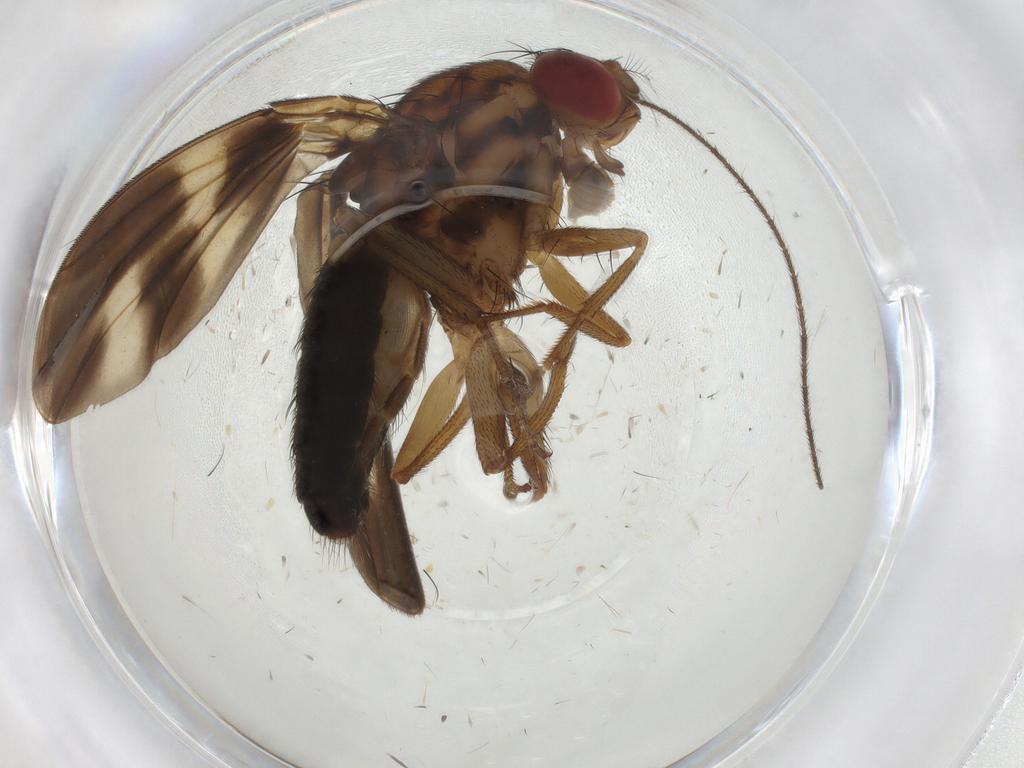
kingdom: Animalia
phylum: Arthropoda
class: Insecta
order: Diptera
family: Drosophilidae
